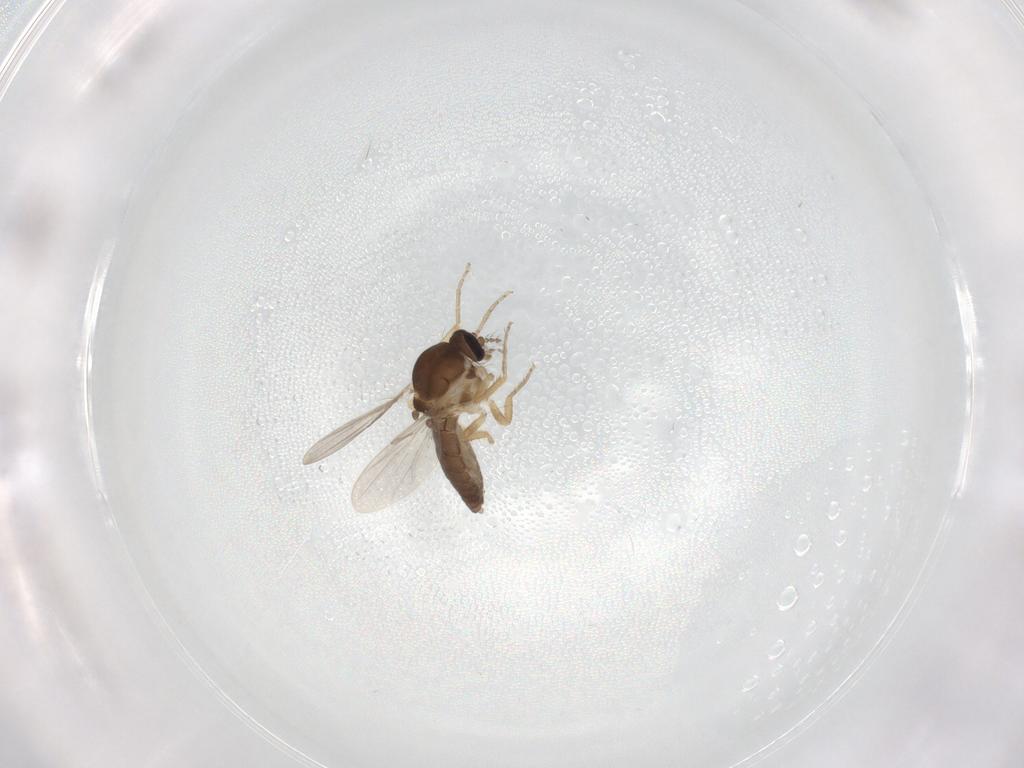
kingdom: Animalia
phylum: Arthropoda
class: Insecta
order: Diptera
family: Ceratopogonidae
